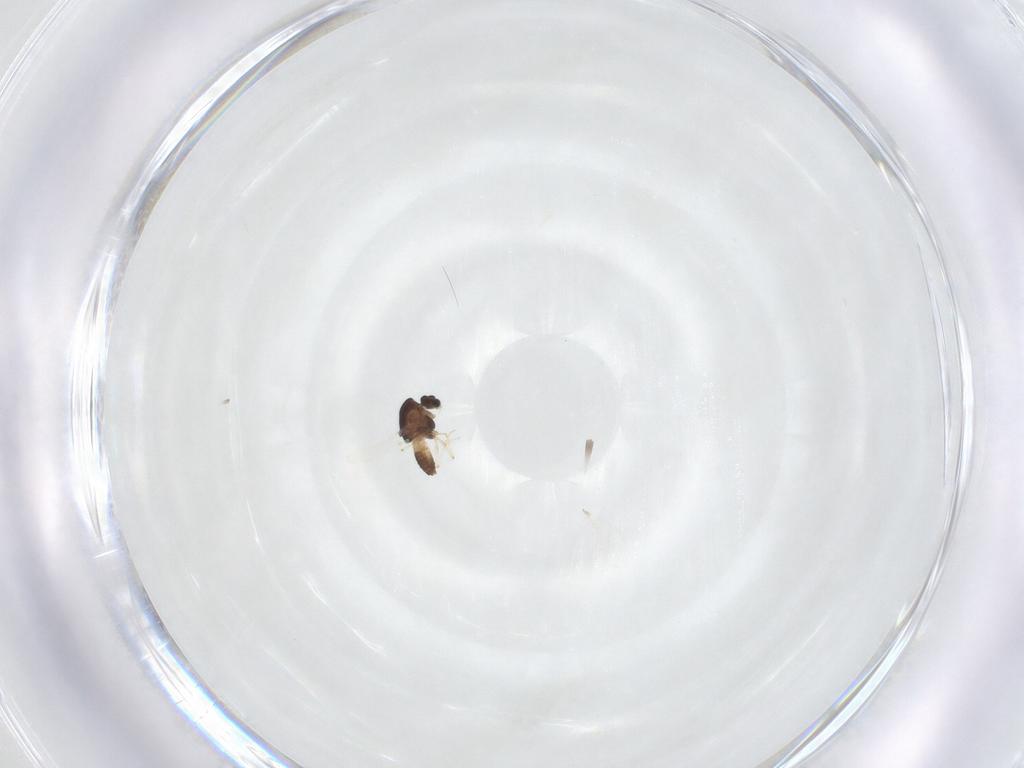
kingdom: Animalia
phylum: Arthropoda
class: Insecta
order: Diptera
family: Chironomidae
